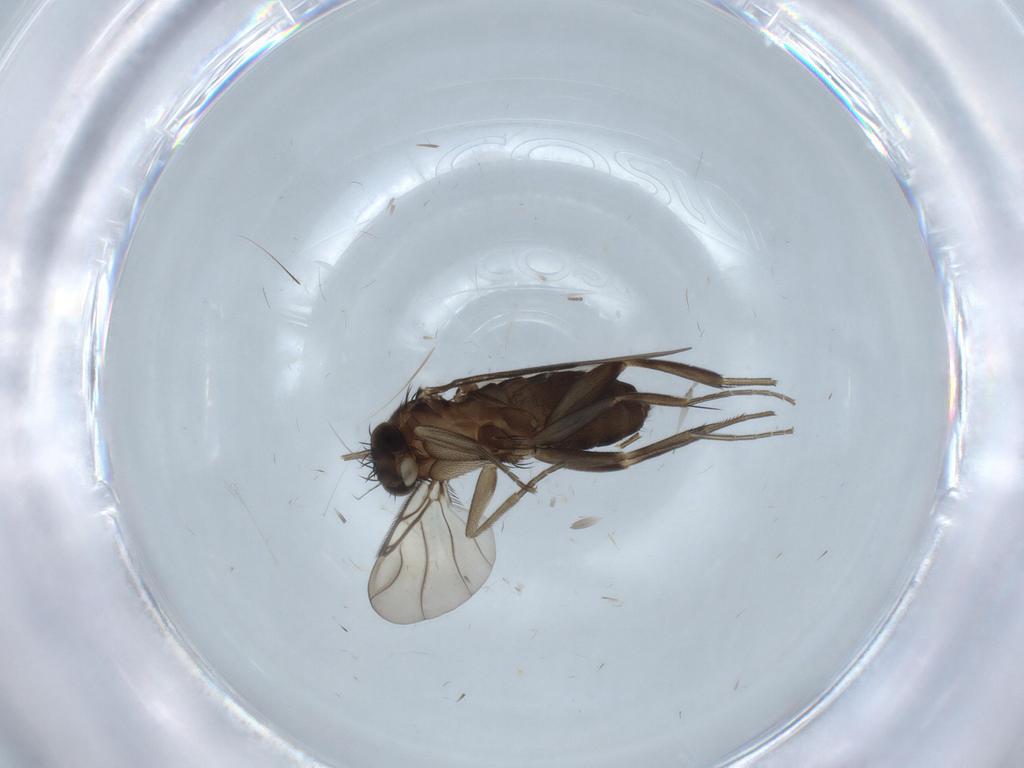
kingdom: Animalia
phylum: Arthropoda
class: Insecta
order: Diptera
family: Phoridae
